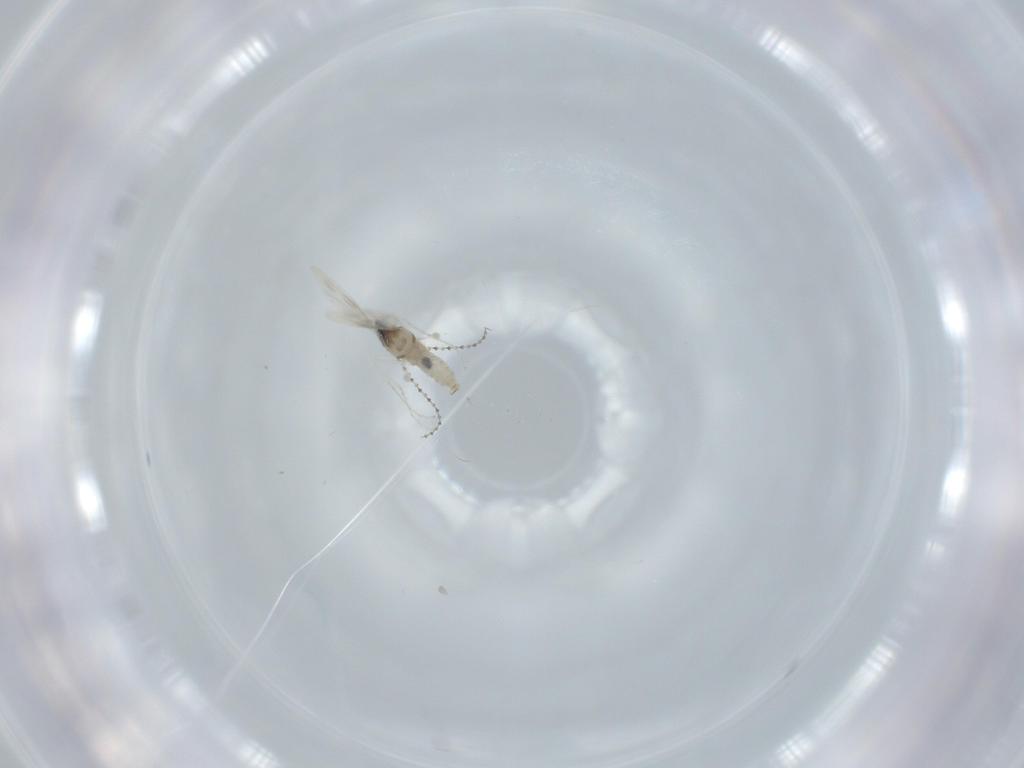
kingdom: Animalia
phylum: Arthropoda
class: Insecta
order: Diptera
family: Cecidomyiidae
